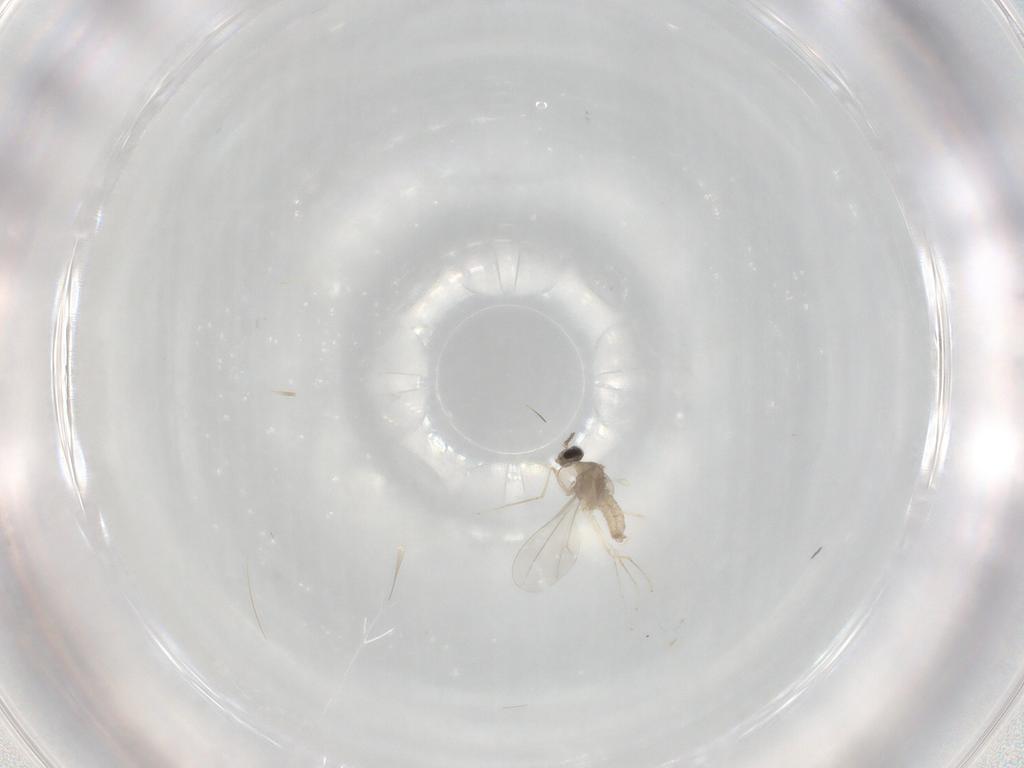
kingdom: Animalia
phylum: Arthropoda
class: Insecta
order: Diptera
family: Cecidomyiidae
